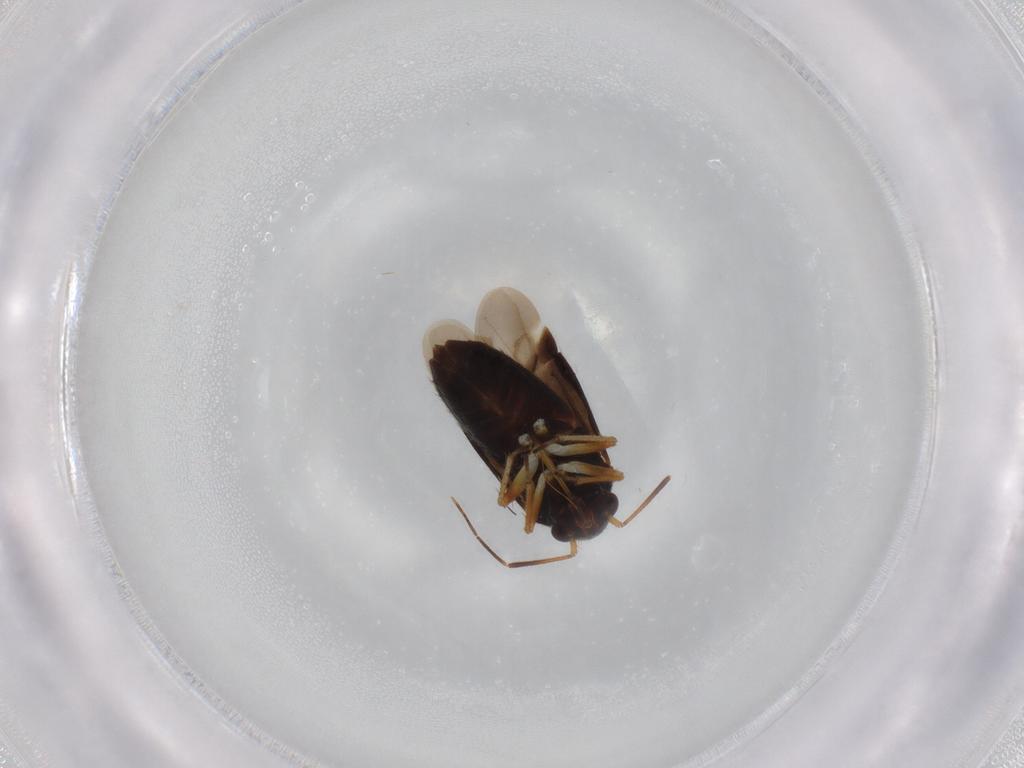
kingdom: Animalia
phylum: Arthropoda
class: Insecta
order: Hemiptera
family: Miridae
